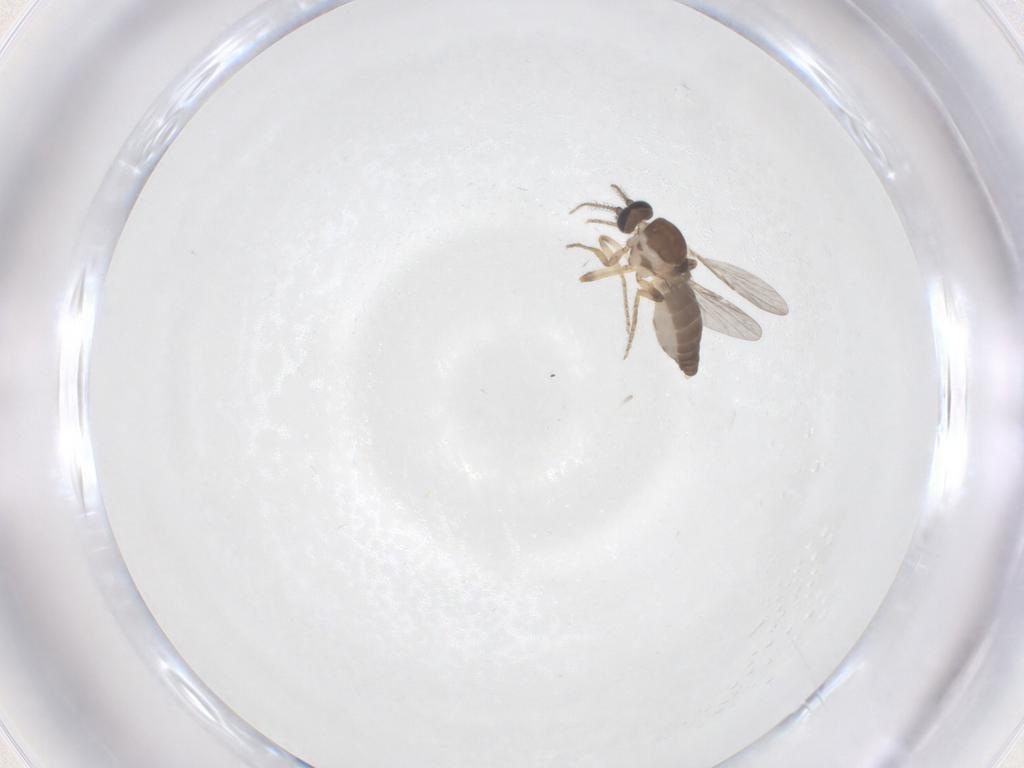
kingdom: Animalia
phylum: Arthropoda
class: Insecta
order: Diptera
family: Ceratopogonidae
